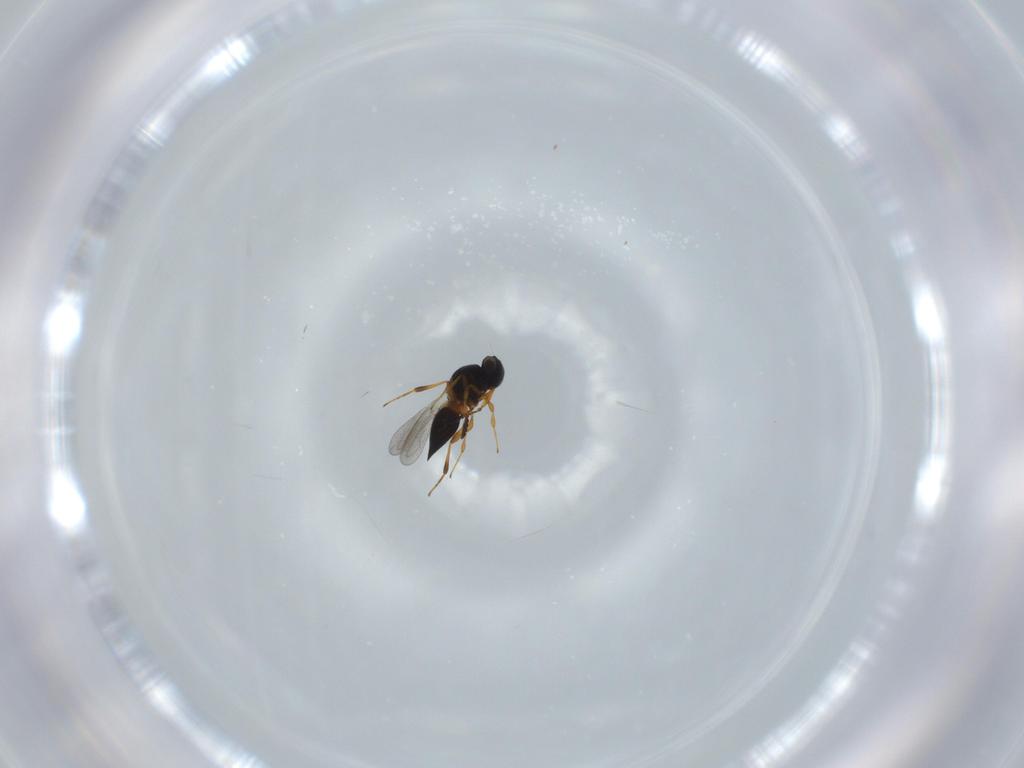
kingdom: Animalia
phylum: Arthropoda
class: Insecta
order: Hymenoptera
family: Platygastridae
